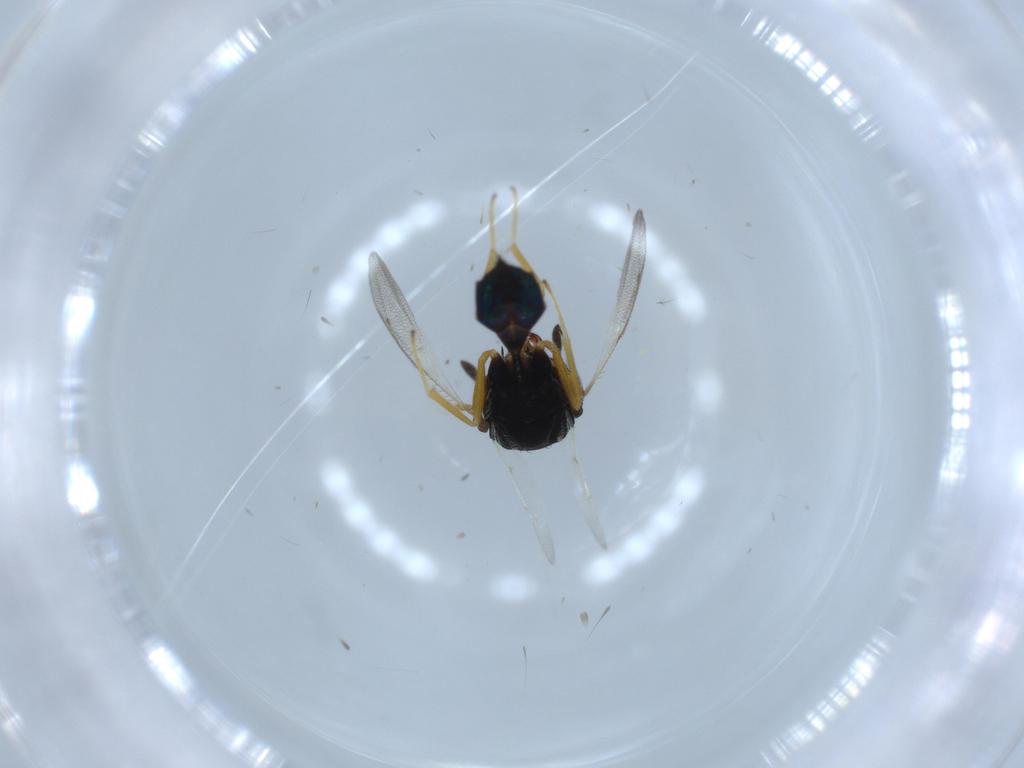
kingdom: Animalia
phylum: Arthropoda
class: Insecta
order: Hymenoptera
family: Pteromalidae
